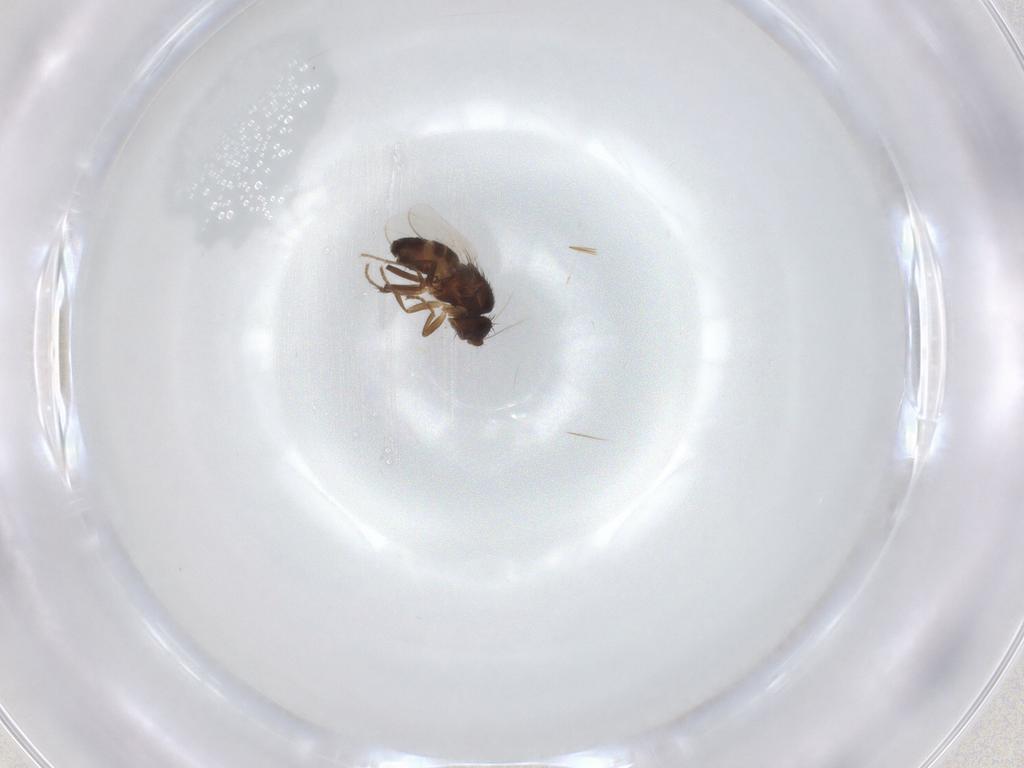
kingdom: Animalia
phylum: Arthropoda
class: Insecta
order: Diptera
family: Sphaeroceridae
